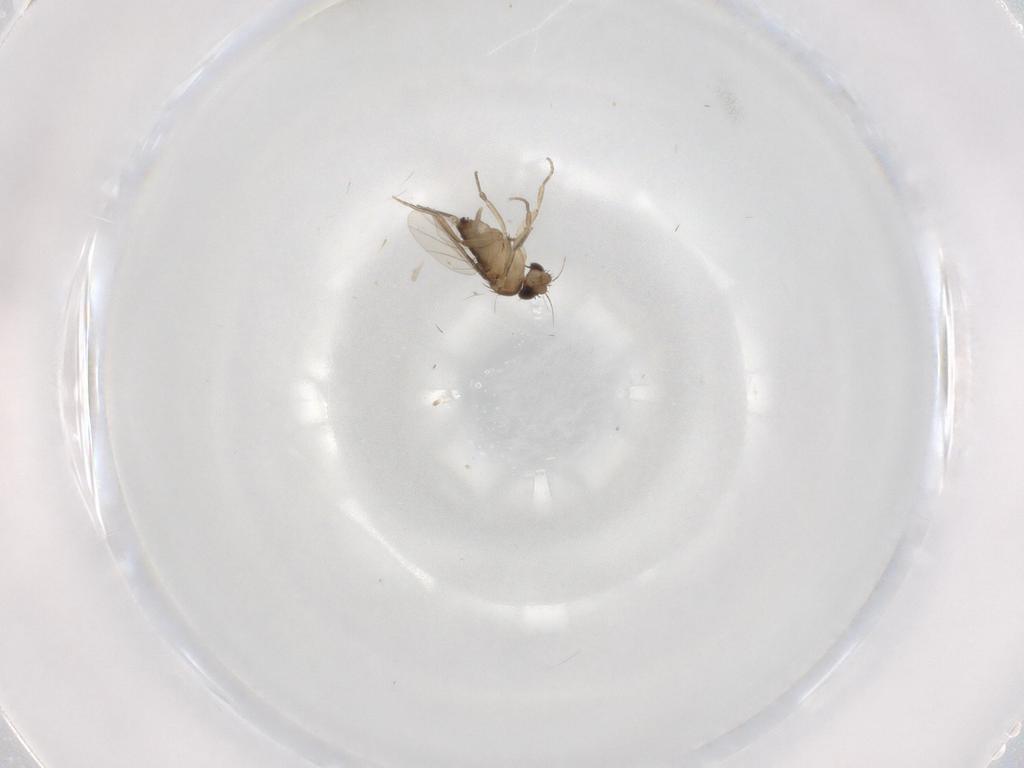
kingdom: Animalia
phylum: Arthropoda
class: Insecta
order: Diptera
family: Chironomidae
